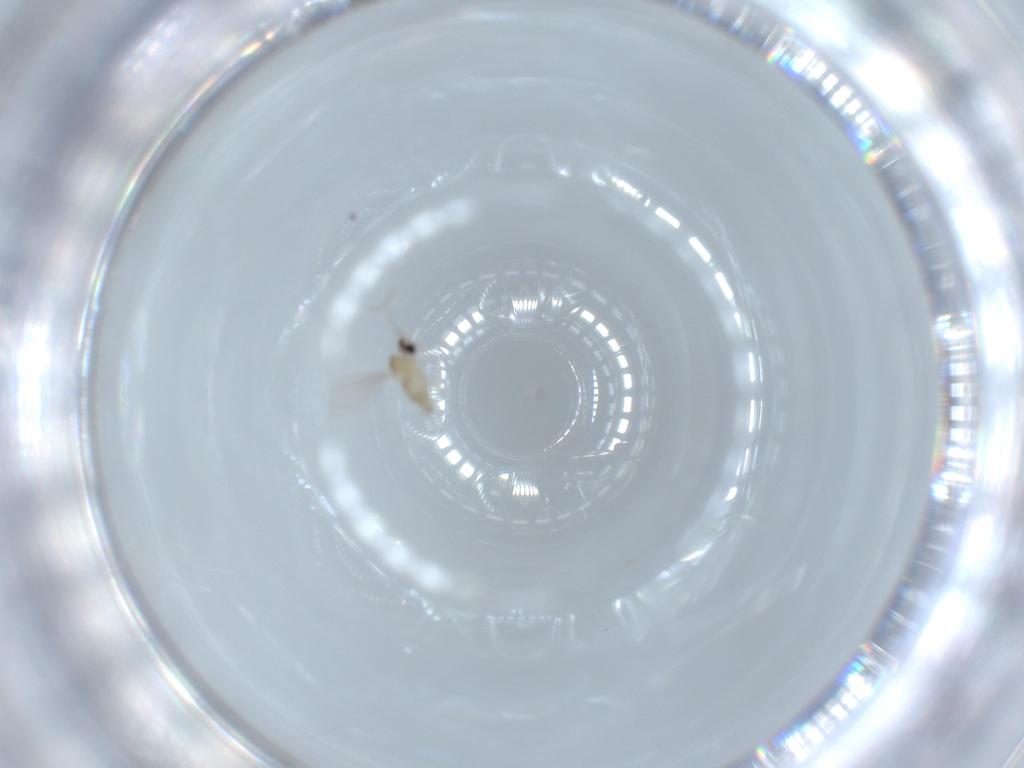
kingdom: Animalia
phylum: Arthropoda
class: Insecta
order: Diptera
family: Cecidomyiidae
